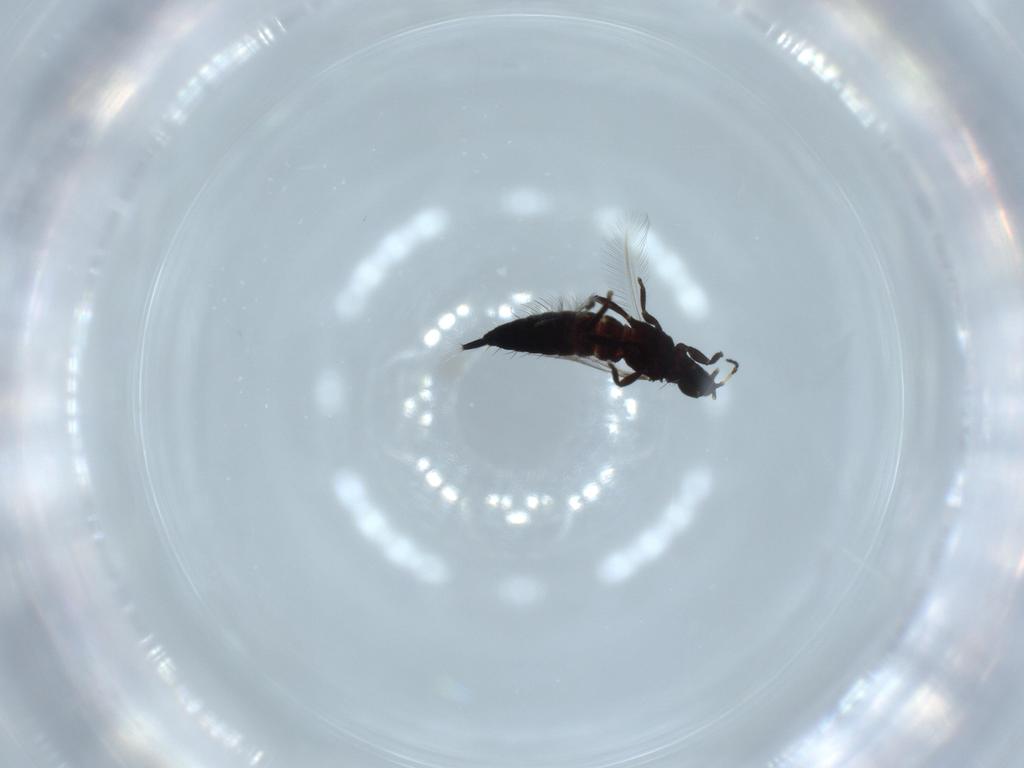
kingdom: Animalia
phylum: Arthropoda
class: Insecta
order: Thysanoptera
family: Phlaeothripidae
